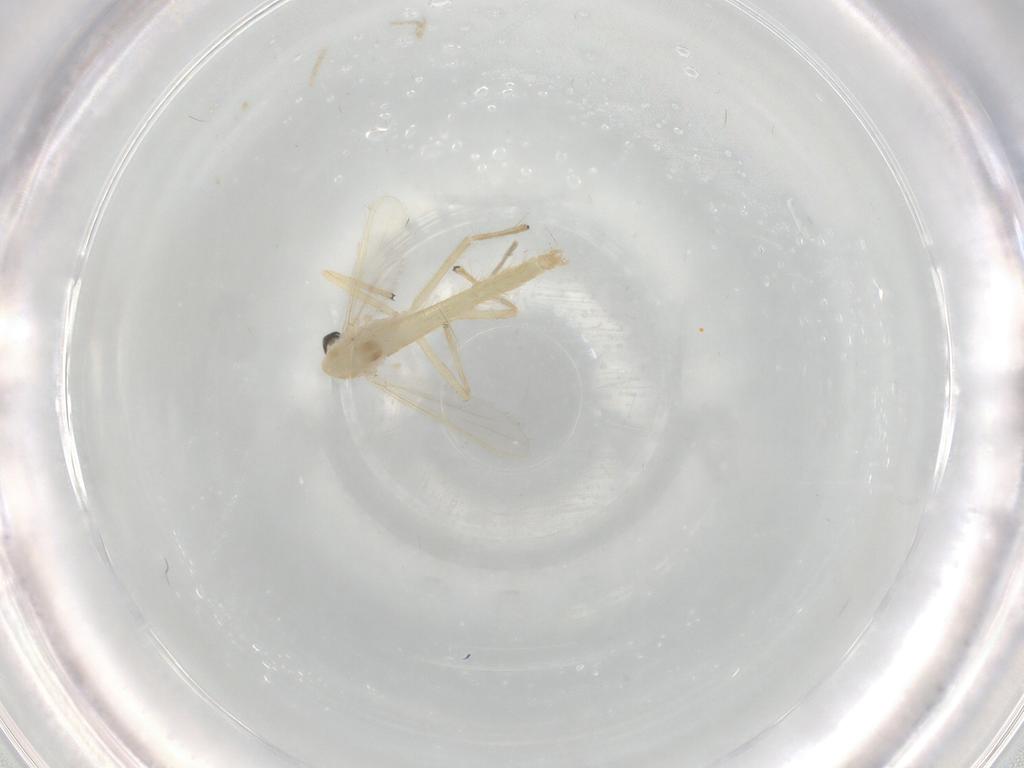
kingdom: Animalia
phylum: Arthropoda
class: Insecta
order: Diptera
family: Chironomidae
